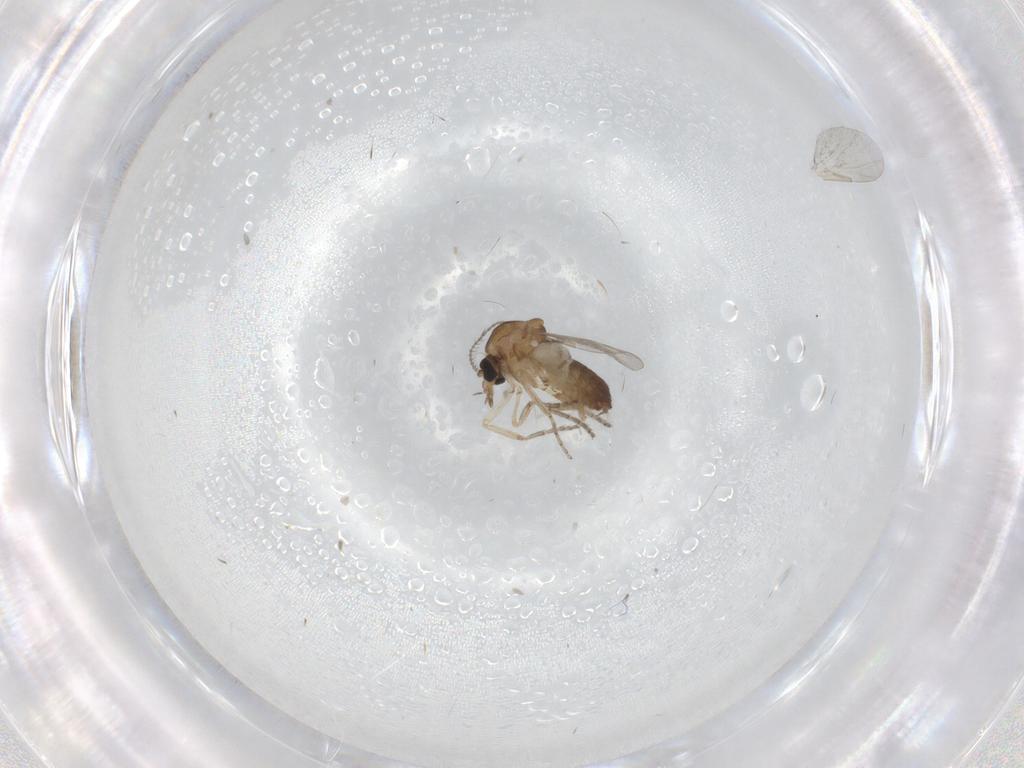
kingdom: Animalia
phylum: Arthropoda
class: Insecta
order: Diptera
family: Ceratopogonidae
